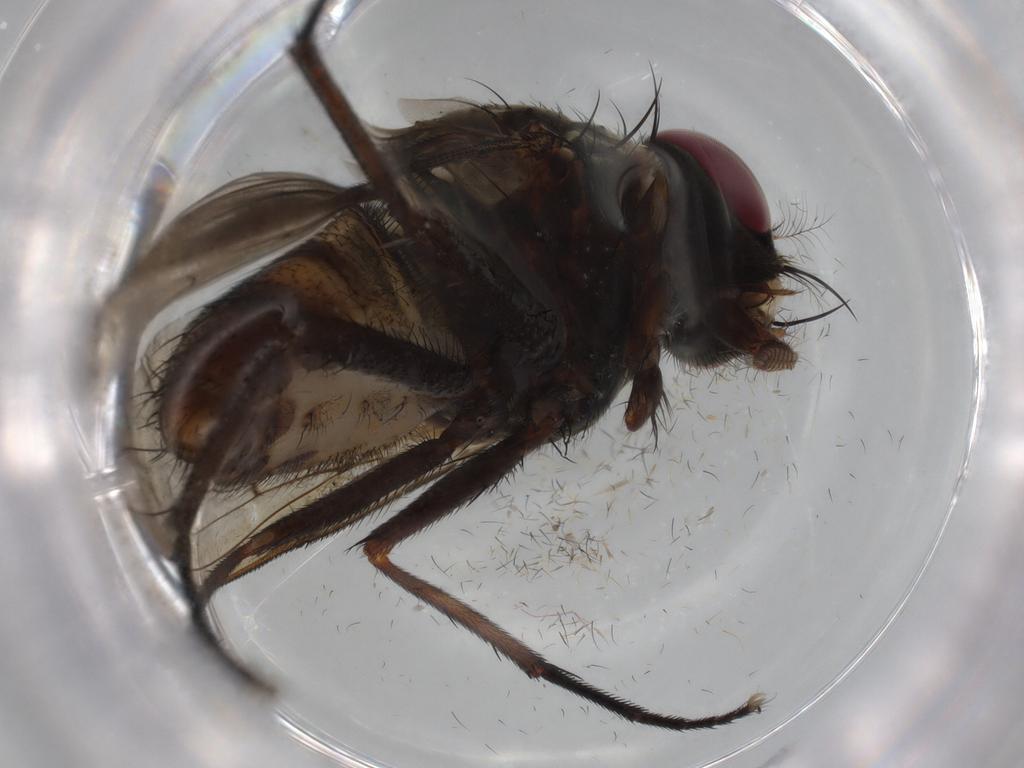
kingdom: Animalia
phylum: Arthropoda
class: Insecta
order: Diptera
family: Muscidae
